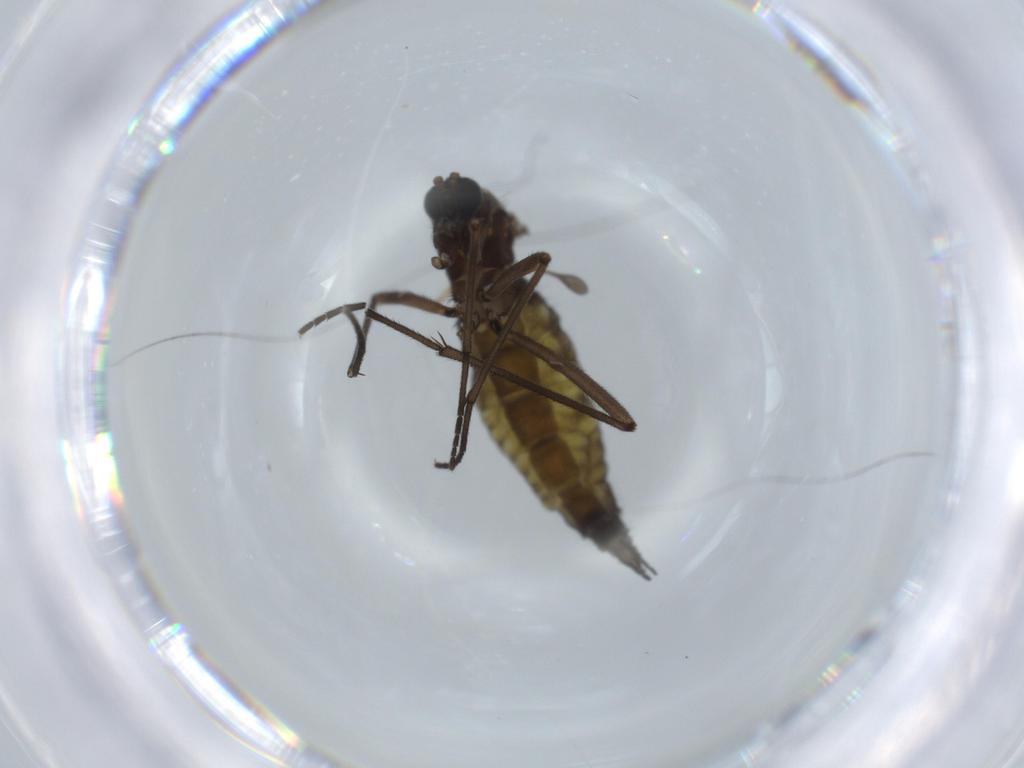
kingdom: Animalia
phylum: Arthropoda
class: Insecta
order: Diptera
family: Sciaridae
